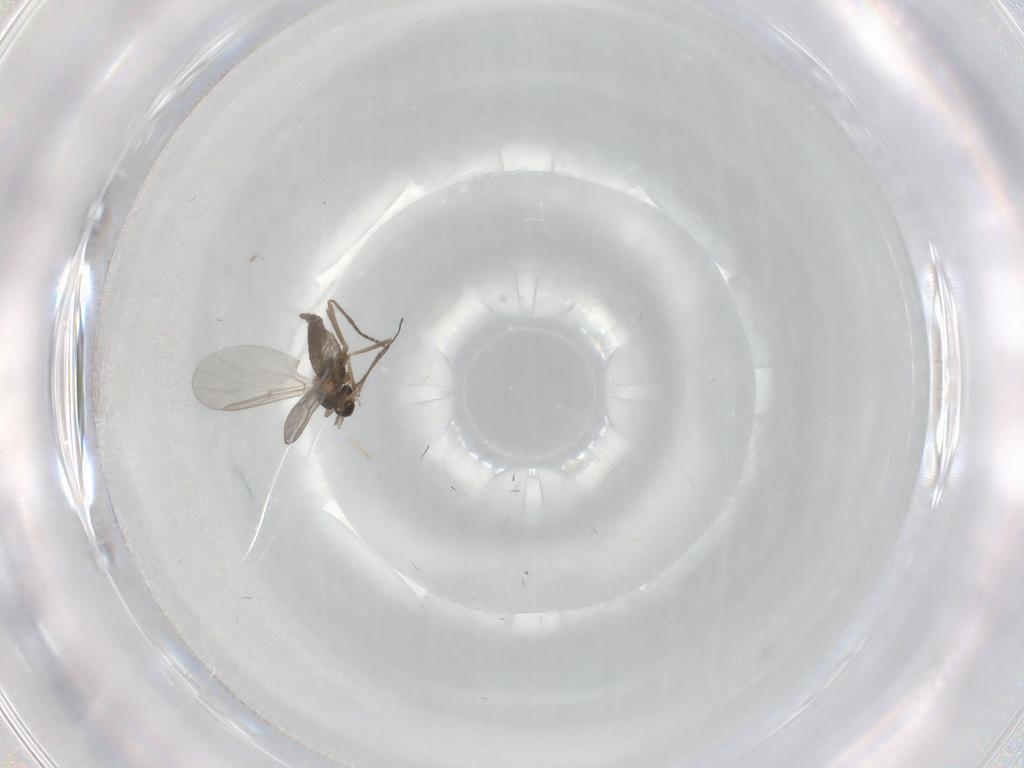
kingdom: Animalia
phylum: Arthropoda
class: Insecta
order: Diptera
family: Cecidomyiidae
